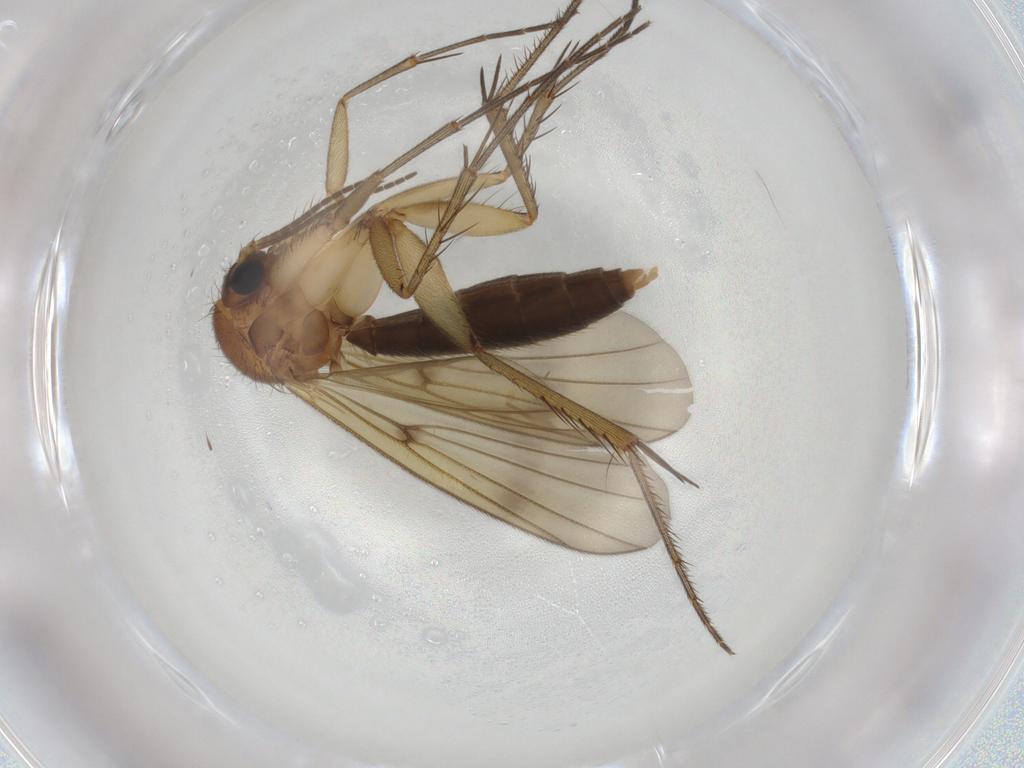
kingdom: Animalia
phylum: Arthropoda
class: Insecta
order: Diptera
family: Mycetophilidae
